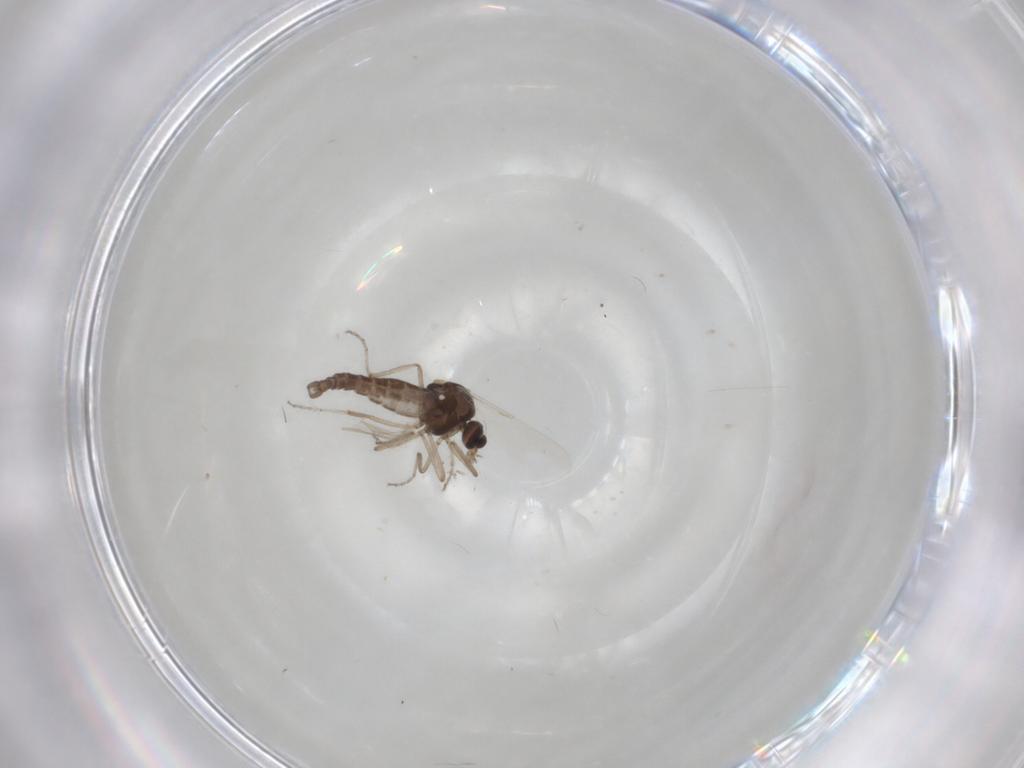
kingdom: Animalia
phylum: Arthropoda
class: Insecta
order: Diptera
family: Ceratopogonidae
